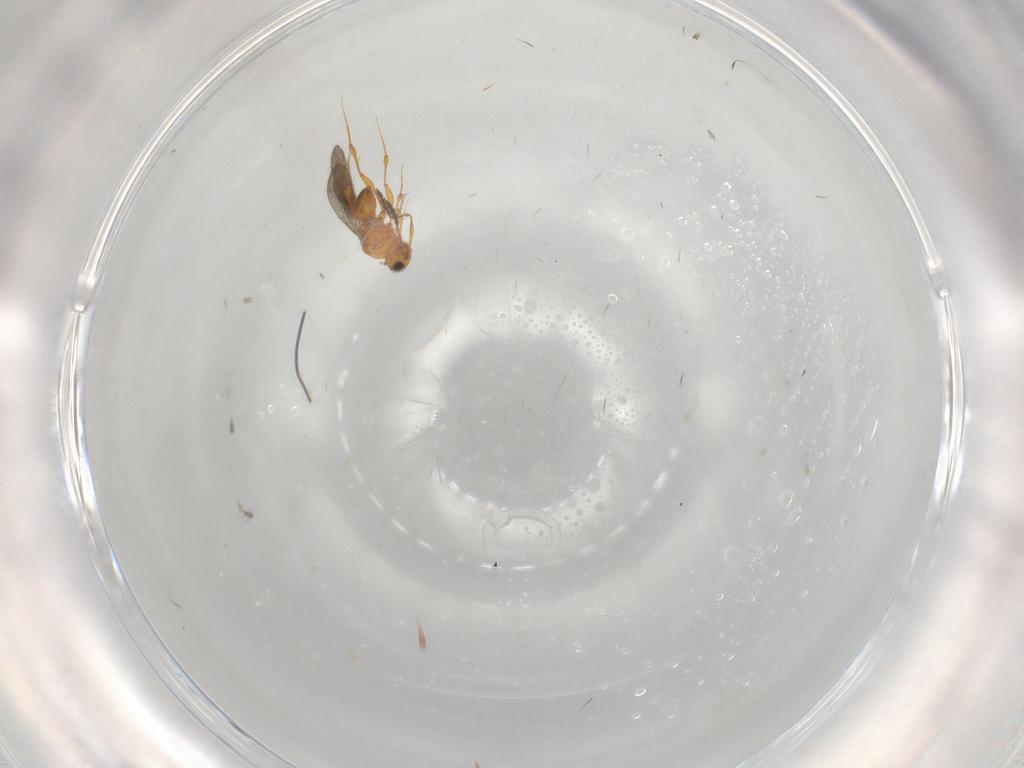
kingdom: Animalia
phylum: Arthropoda
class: Insecta
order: Hymenoptera
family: Platygastridae
